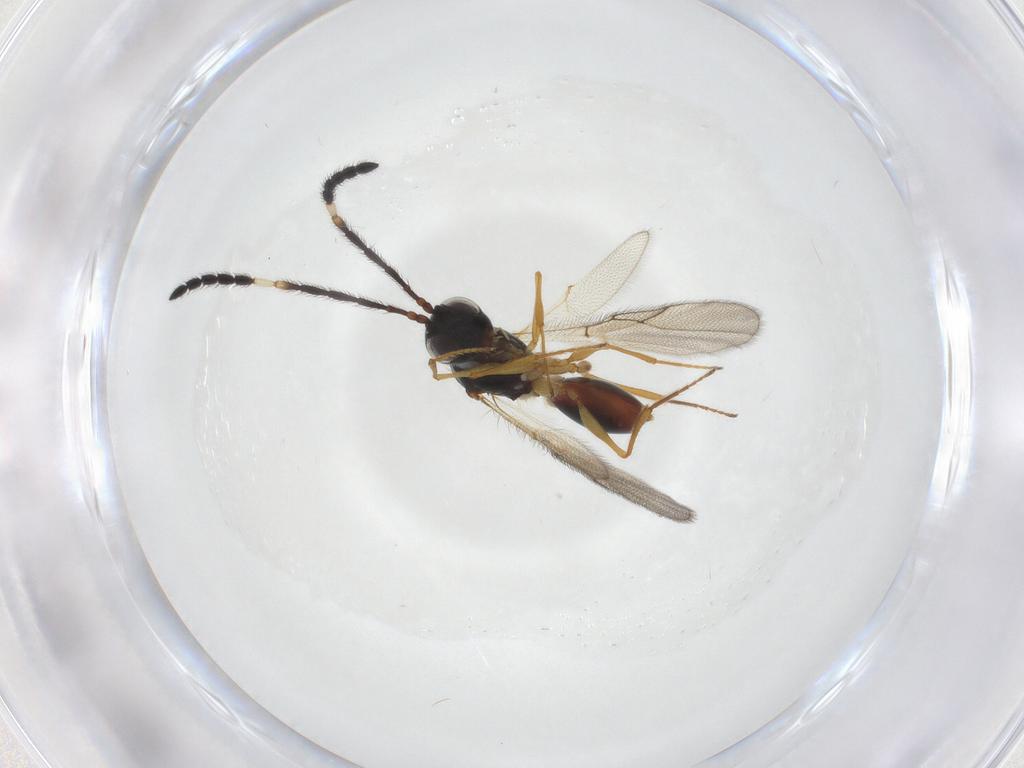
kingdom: Animalia
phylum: Arthropoda
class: Insecta
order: Hymenoptera
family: Figitidae
